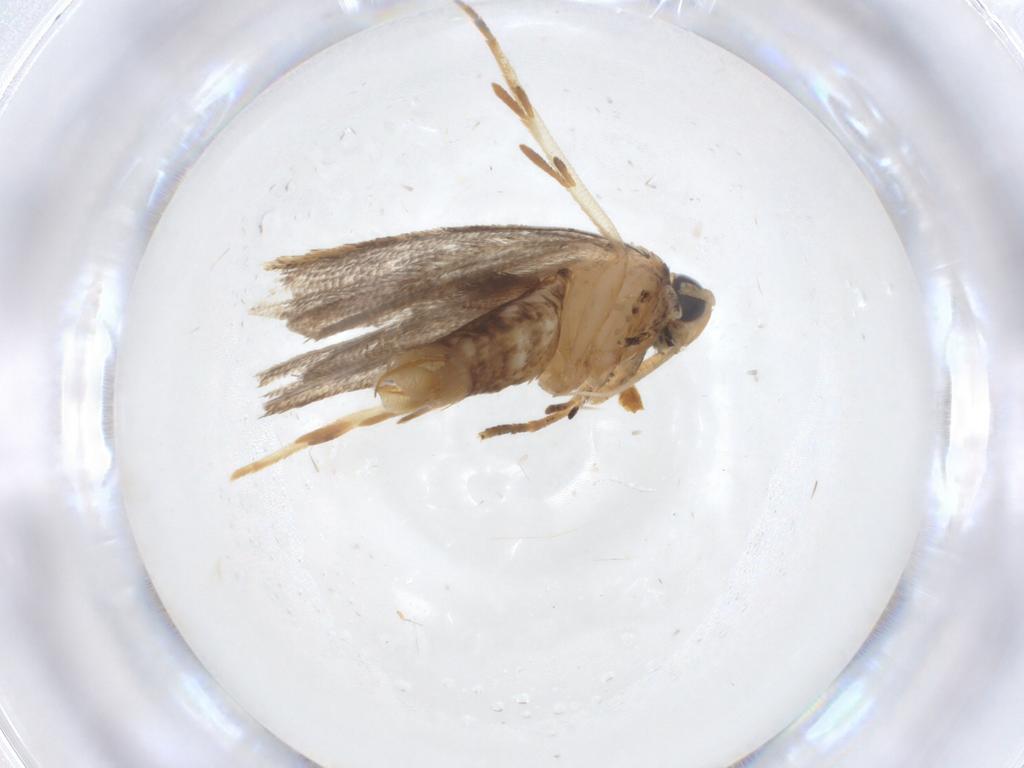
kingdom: Animalia
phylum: Arthropoda
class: Insecta
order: Lepidoptera
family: Oecophoridae
